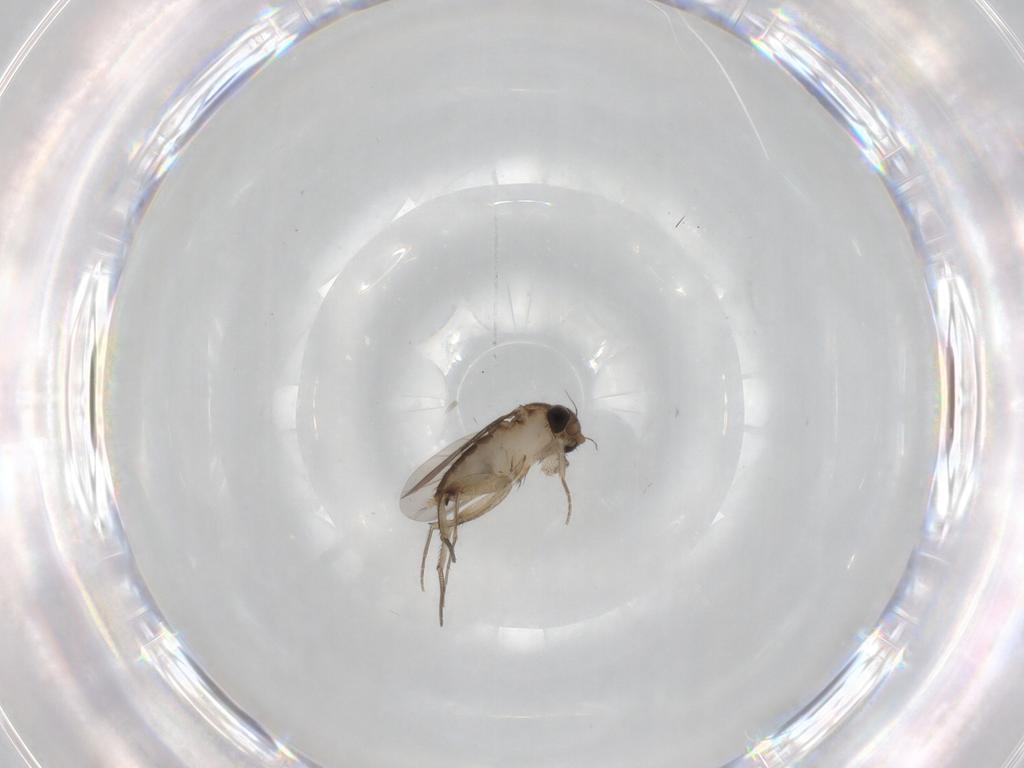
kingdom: Animalia
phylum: Arthropoda
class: Insecta
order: Diptera
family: Phoridae
